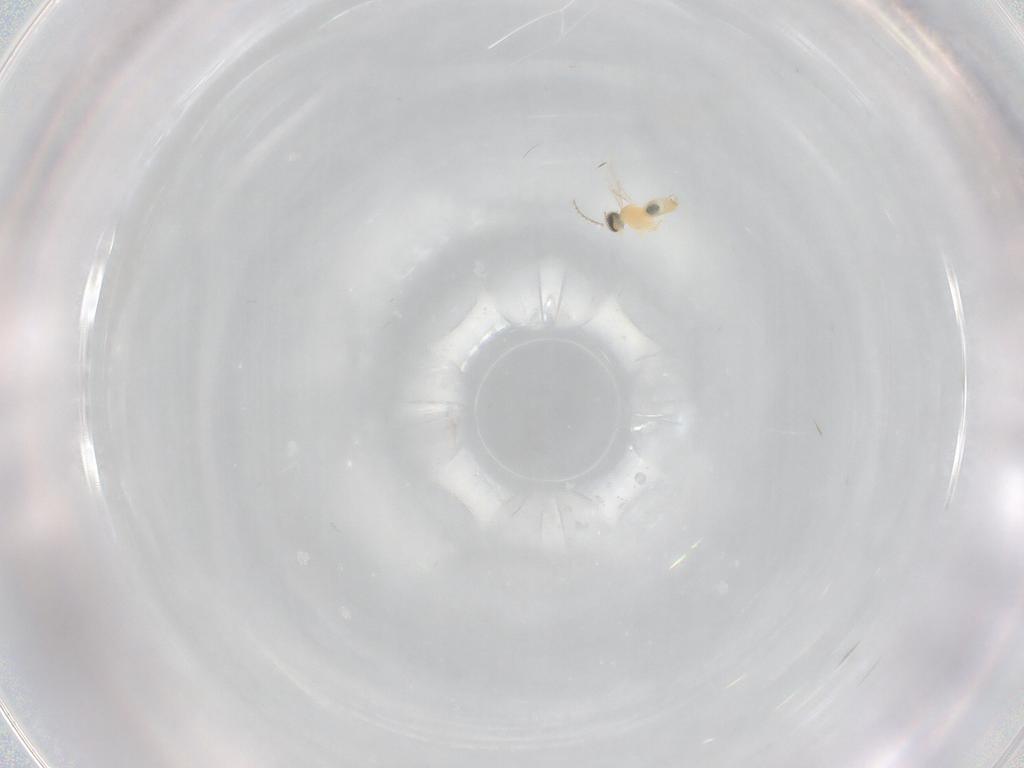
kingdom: Animalia
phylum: Arthropoda
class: Insecta
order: Diptera
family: Cecidomyiidae
